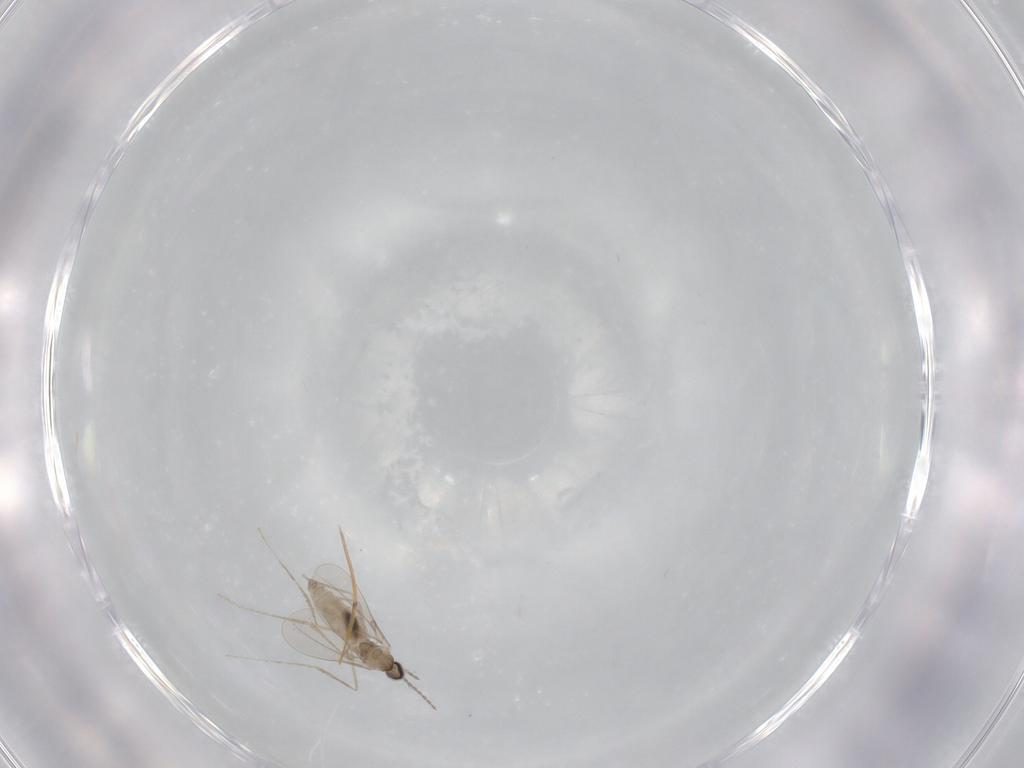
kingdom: Animalia
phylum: Arthropoda
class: Insecta
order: Diptera
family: Cecidomyiidae
